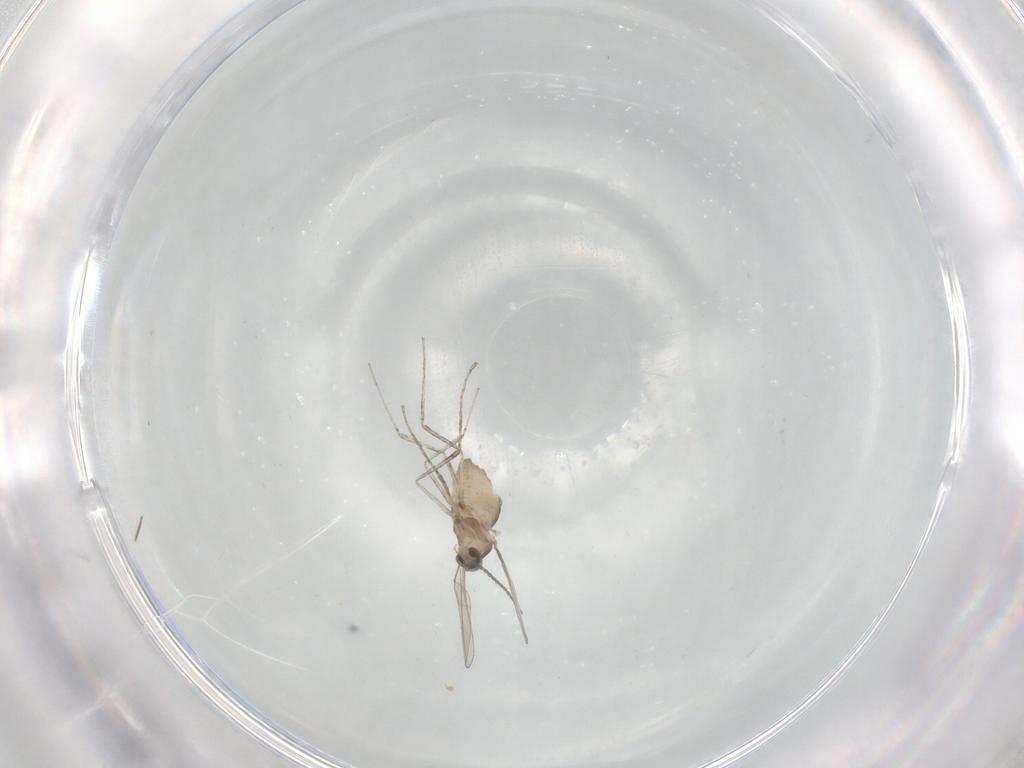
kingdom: Animalia
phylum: Arthropoda
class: Insecta
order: Diptera
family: Cecidomyiidae
